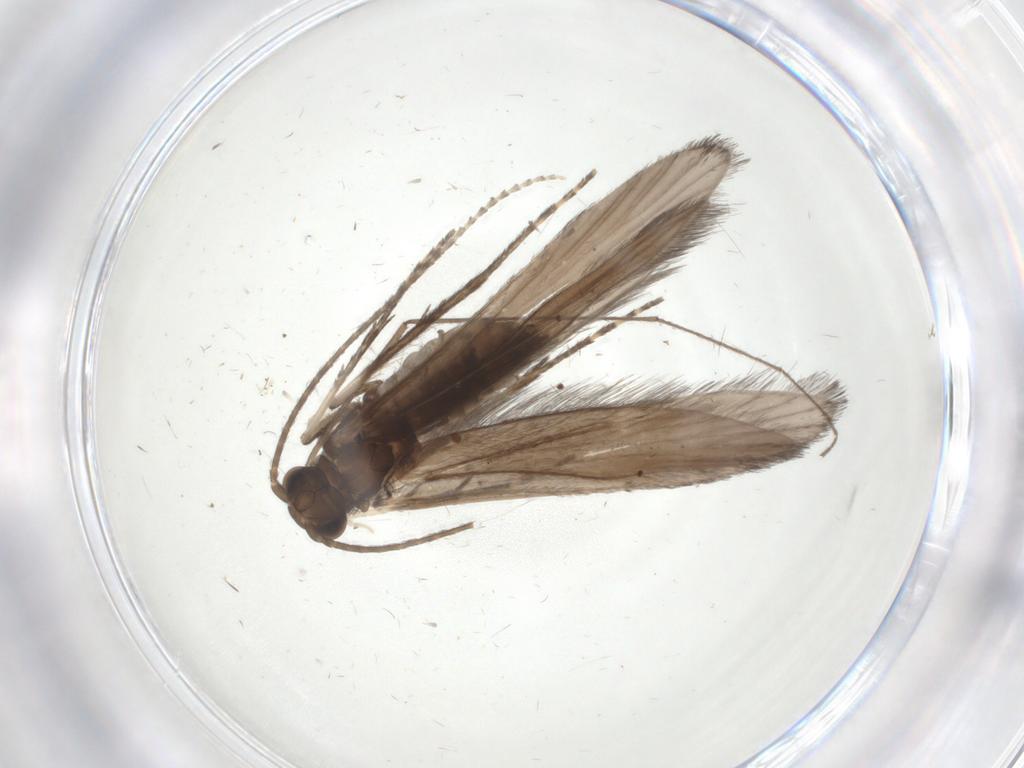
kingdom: Animalia
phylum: Arthropoda
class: Insecta
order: Trichoptera
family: Xiphocentronidae
